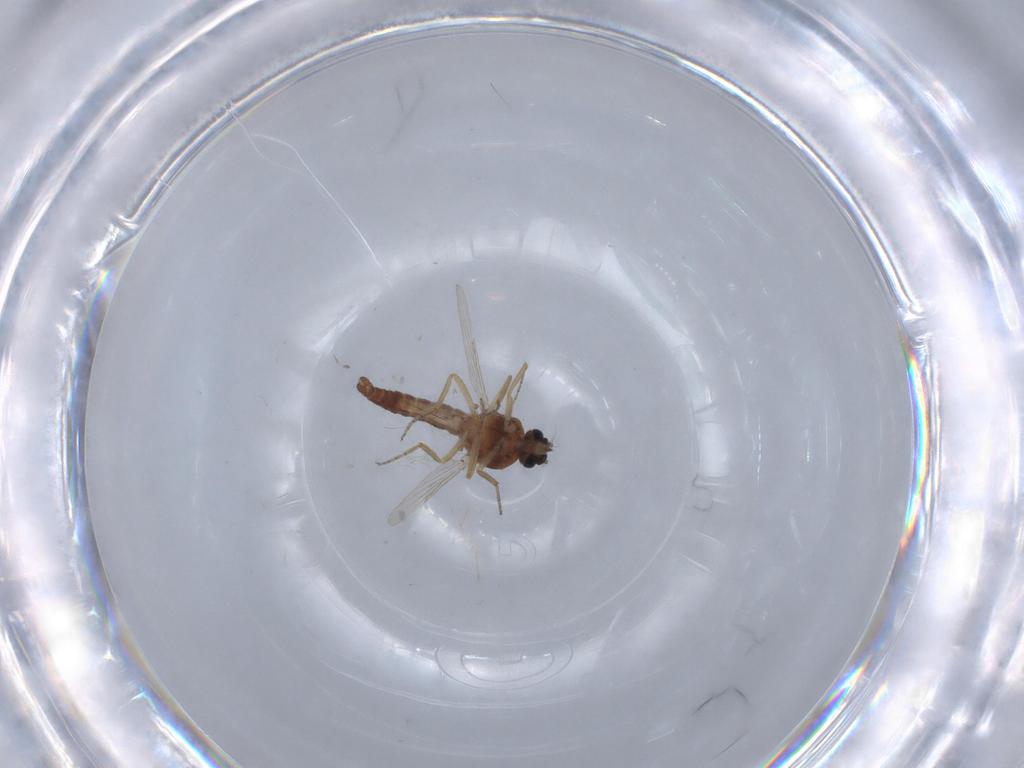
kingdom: Animalia
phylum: Arthropoda
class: Insecta
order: Diptera
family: Ceratopogonidae
